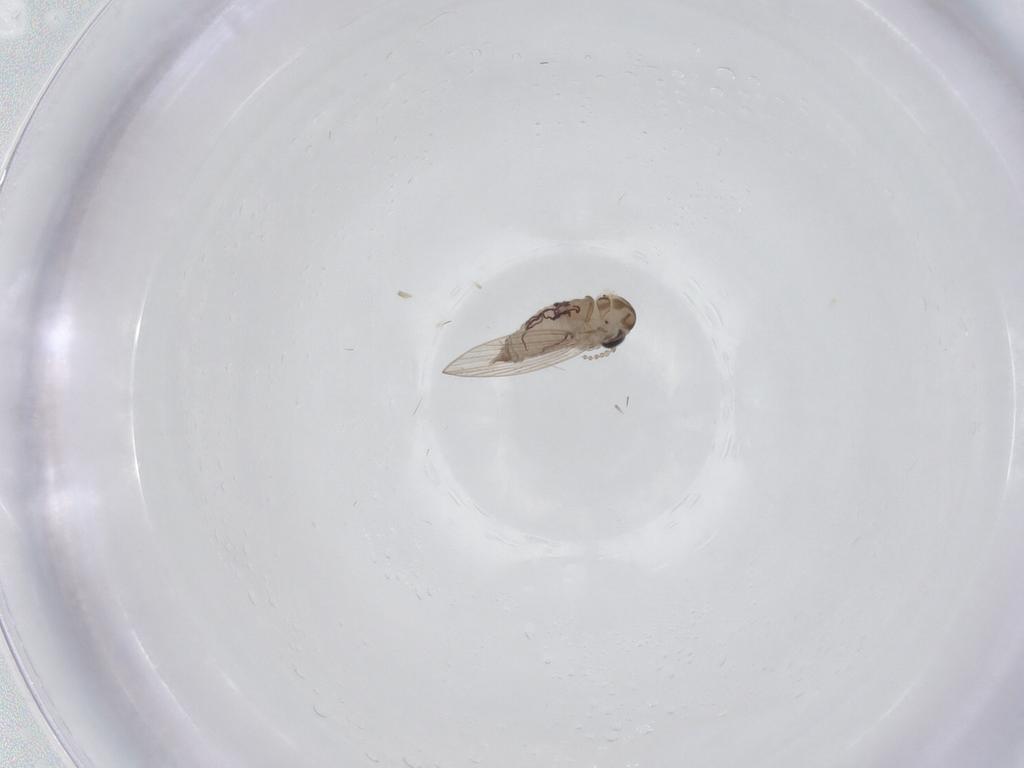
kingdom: Animalia
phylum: Arthropoda
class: Insecta
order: Diptera
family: Psychodidae
